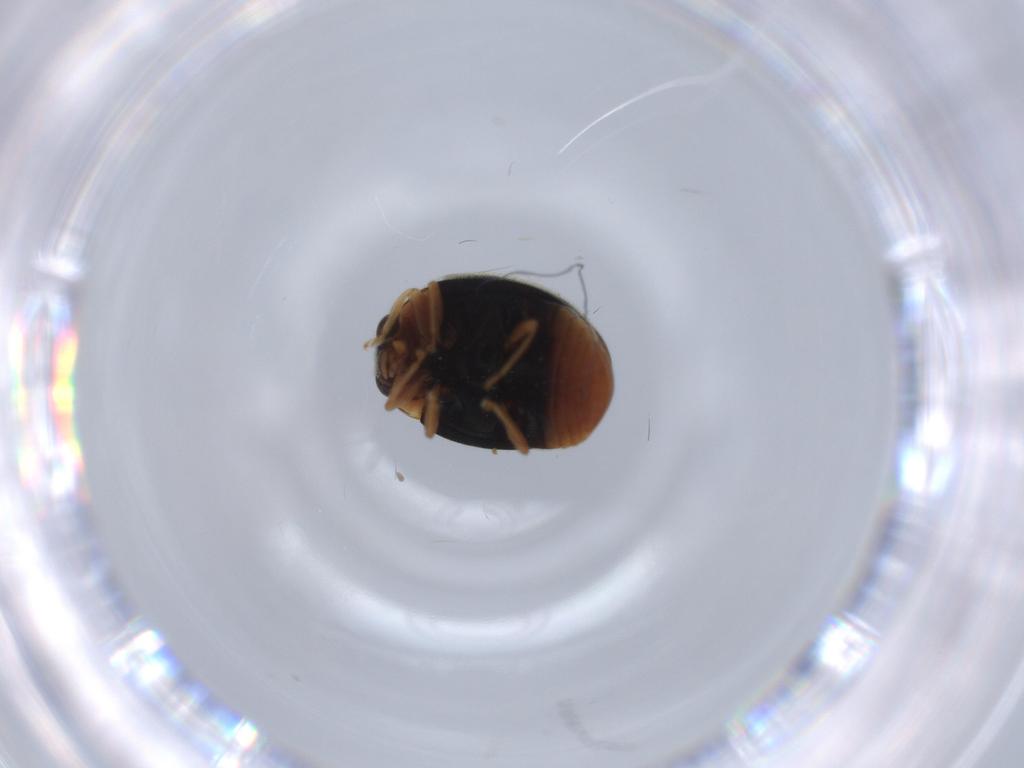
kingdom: Animalia
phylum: Arthropoda
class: Insecta
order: Coleoptera
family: Coccinellidae
